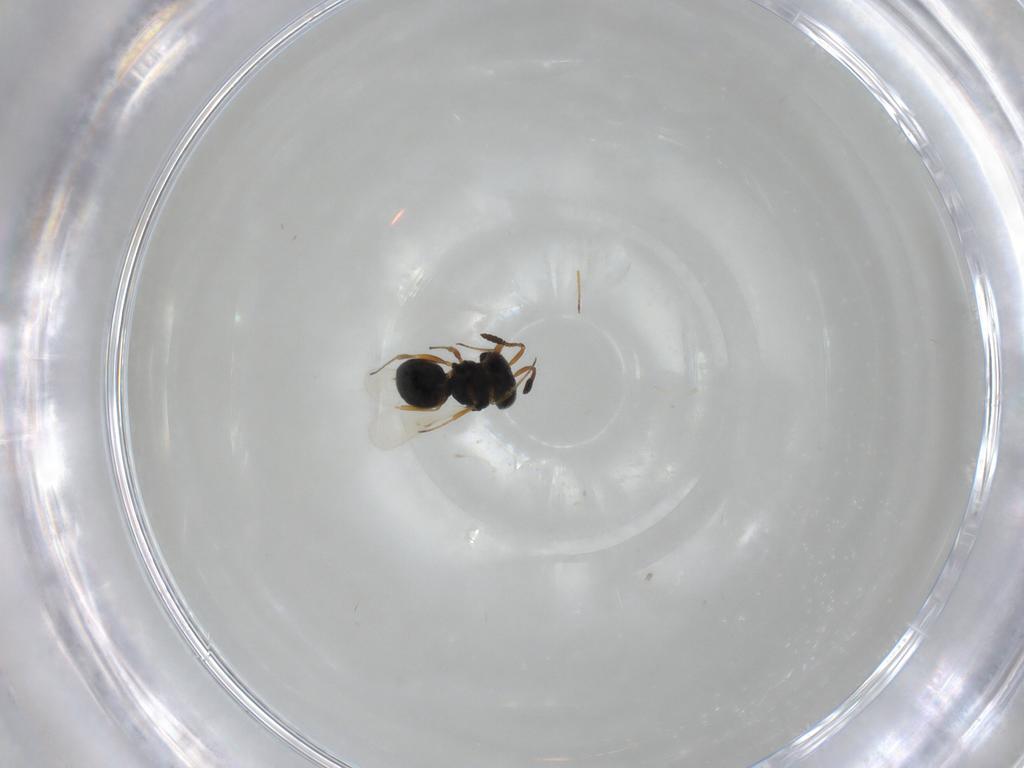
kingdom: Animalia
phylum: Arthropoda
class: Insecta
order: Hymenoptera
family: Scelionidae
